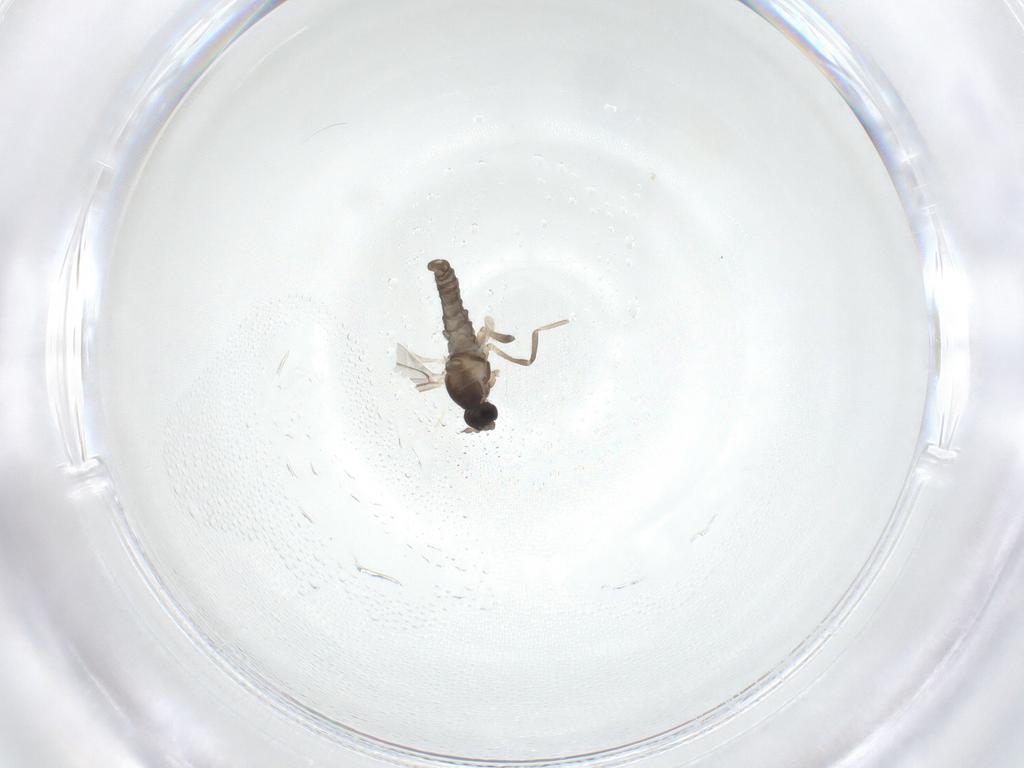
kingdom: Animalia
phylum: Arthropoda
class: Insecta
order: Diptera
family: Cecidomyiidae
